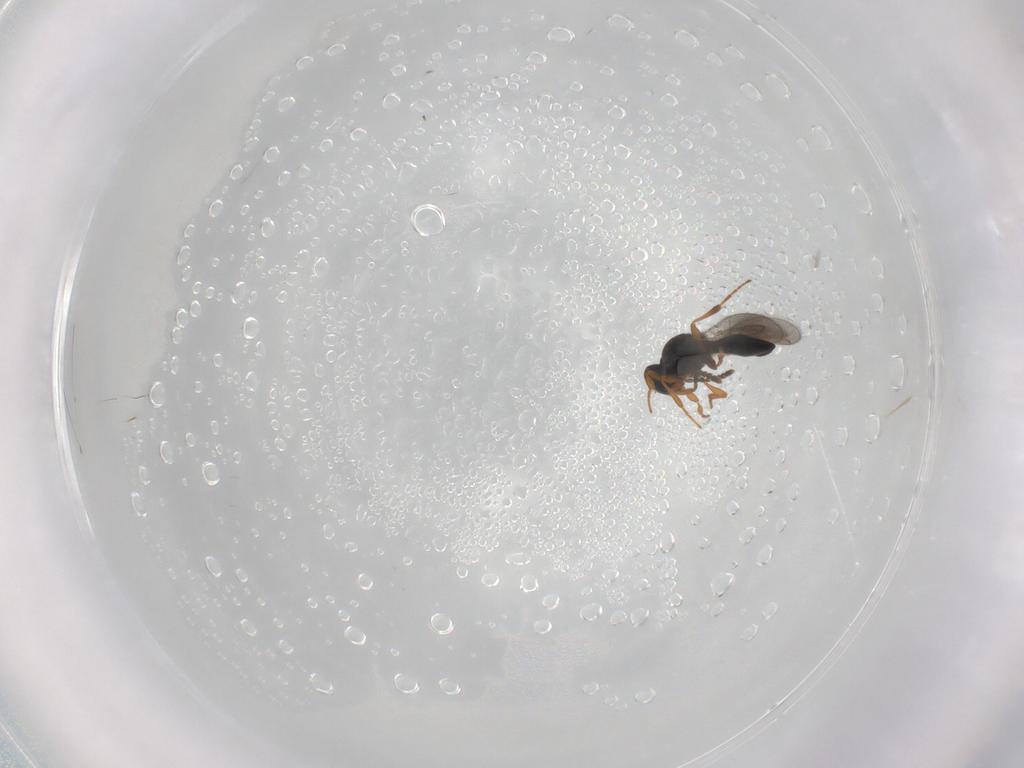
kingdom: Animalia
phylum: Arthropoda
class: Insecta
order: Hymenoptera
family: Platygastridae
